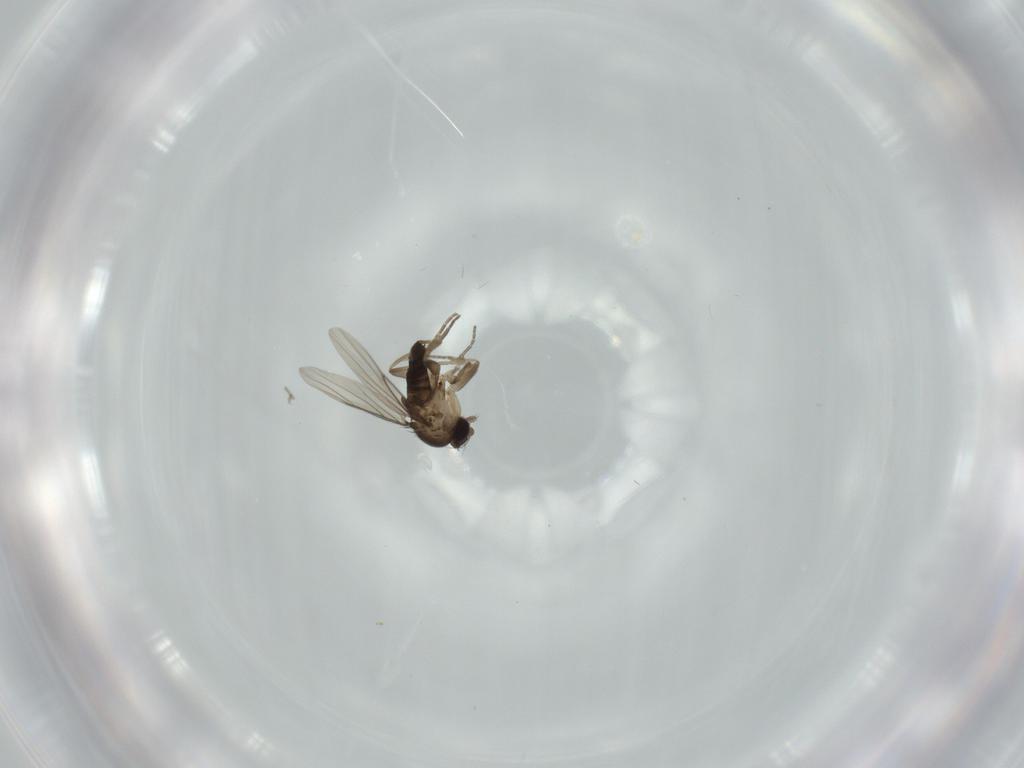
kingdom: Animalia
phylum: Arthropoda
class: Insecta
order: Diptera
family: Phoridae
